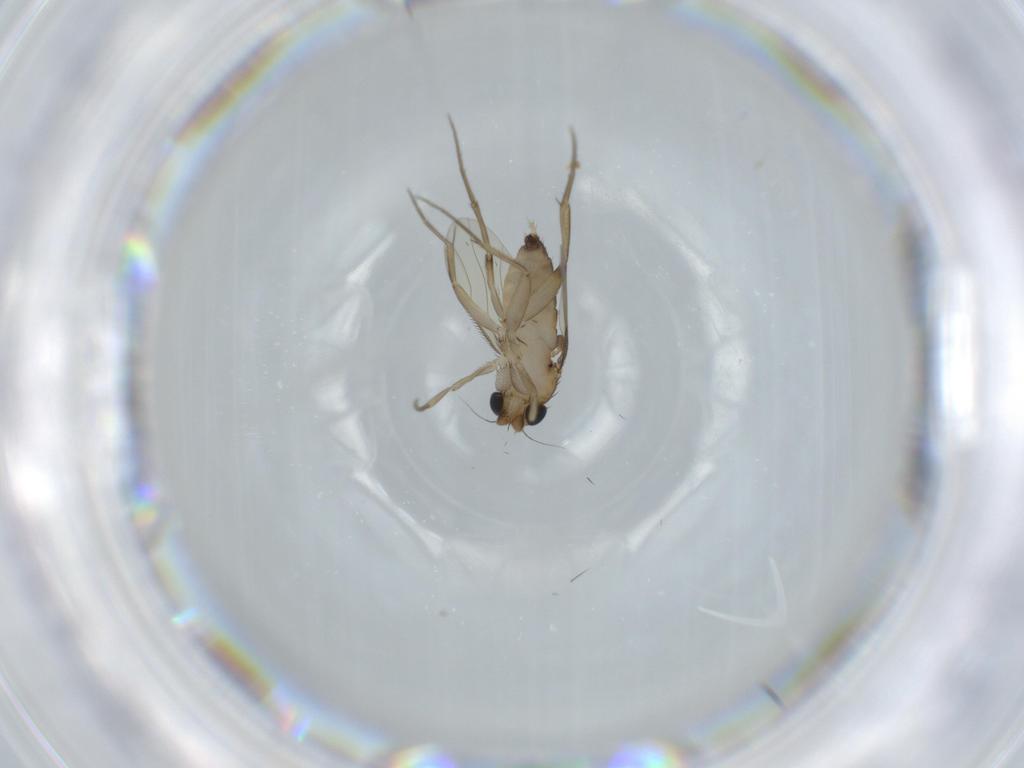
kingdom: Animalia
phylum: Arthropoda
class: Insecta
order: Diptera
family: Phoridae
